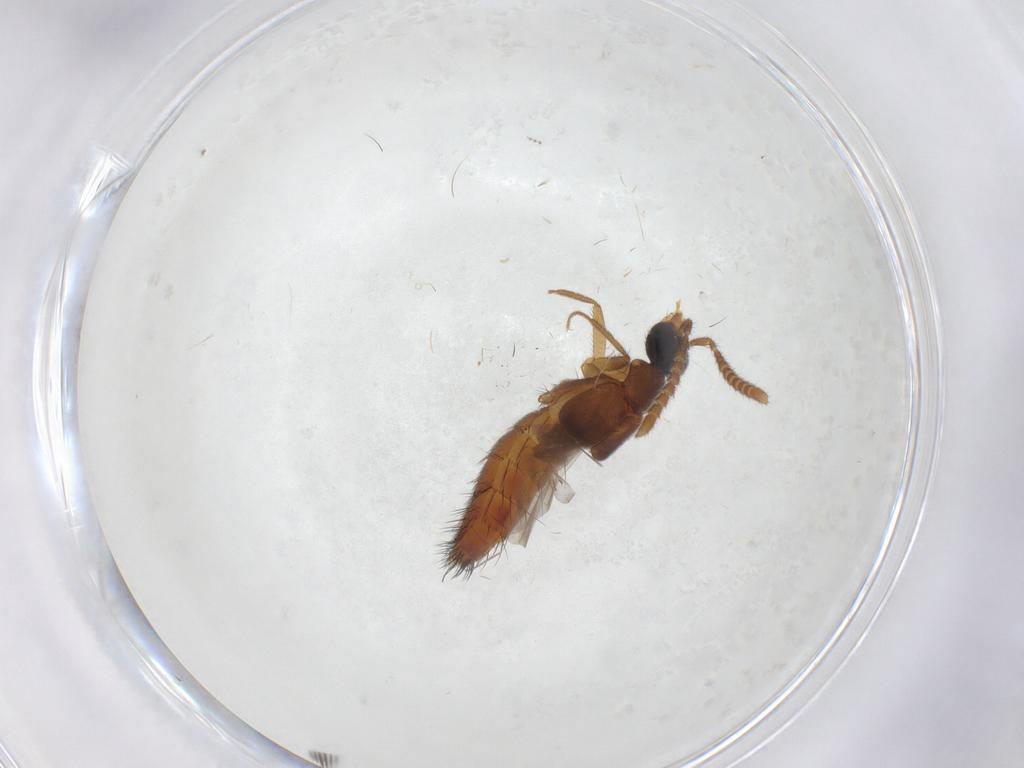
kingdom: Animalia
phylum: Arthropoda
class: Insecta
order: Coleoptera
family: Staphylinidae
